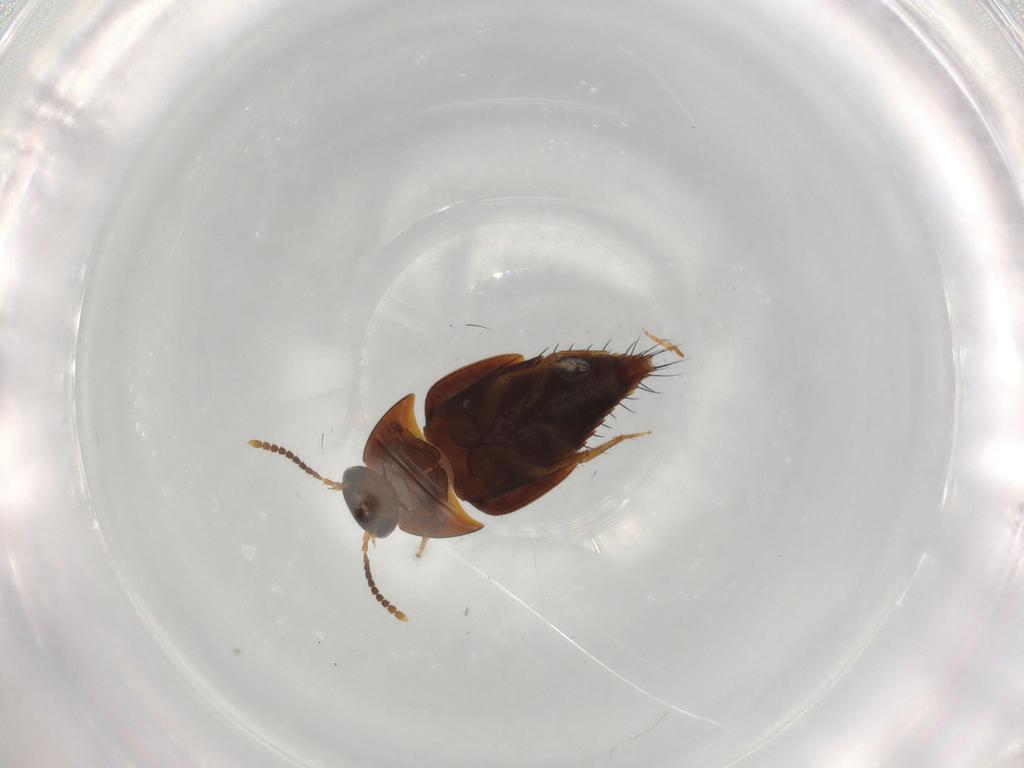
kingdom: Animalia
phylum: Arthropoda
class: Insecta
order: Coleoptera
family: Staphylinidae
